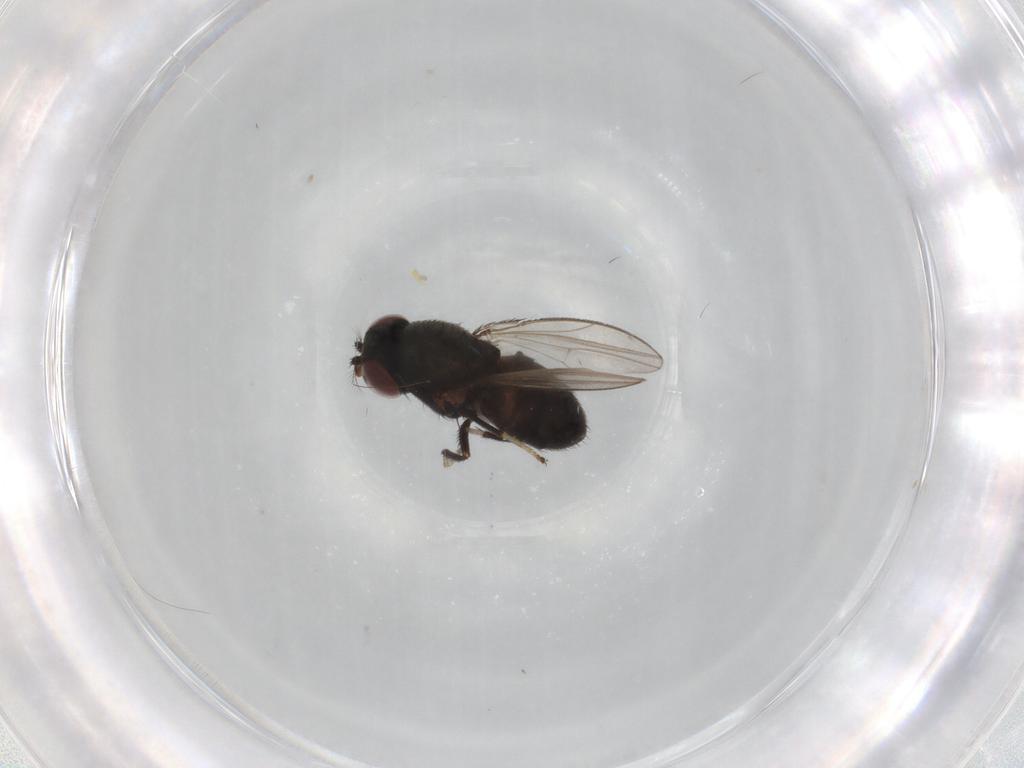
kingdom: Animalia
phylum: Arthropoda
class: Insecta
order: Diptera
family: Ephydridae
